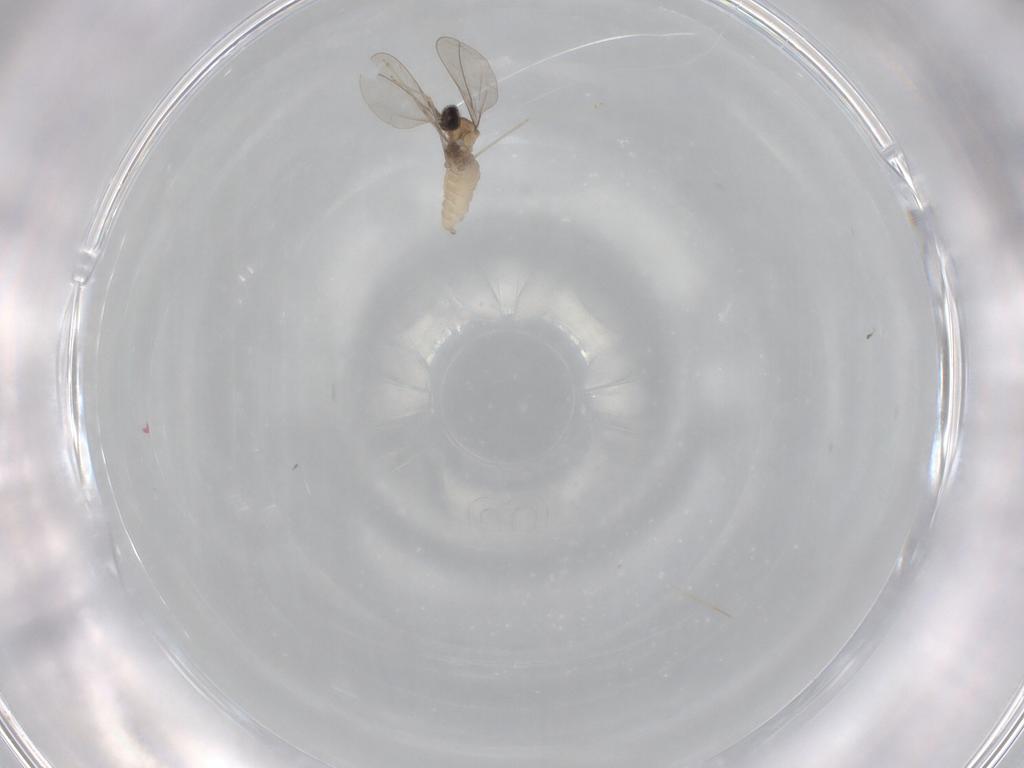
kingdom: Animalia
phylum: Arthropoda
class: Insecta
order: Diptera
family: Cecidomyiidae
